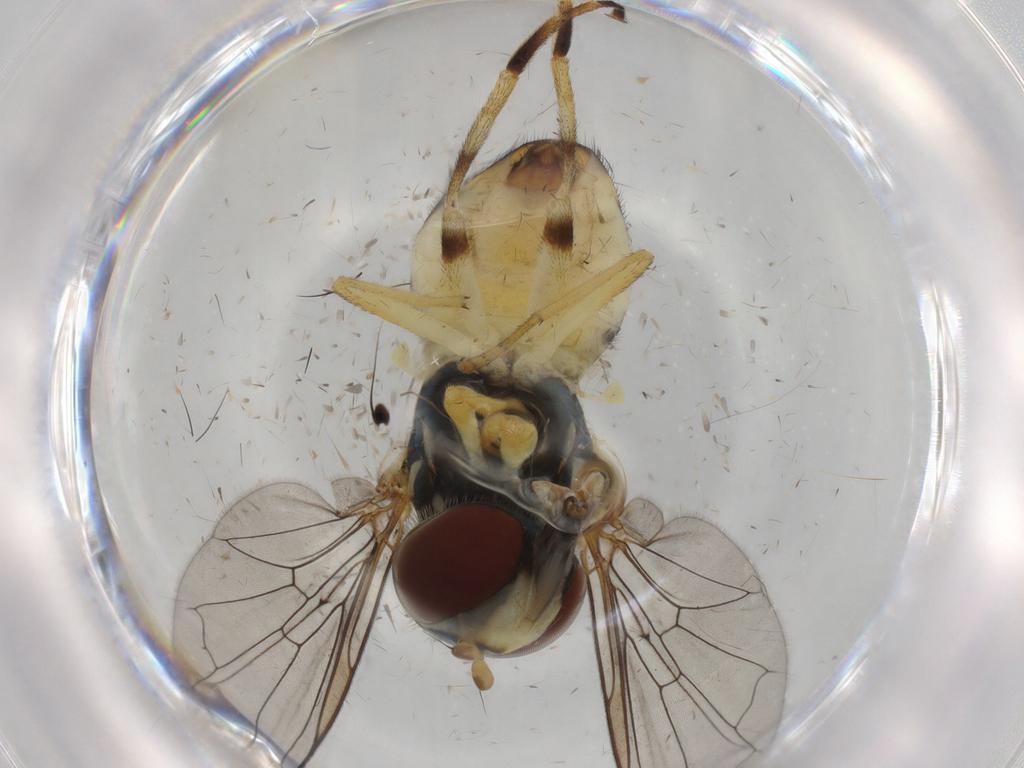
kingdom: Animalia
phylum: Arthropoda
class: Insecta
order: Diptera
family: Syrphidae
